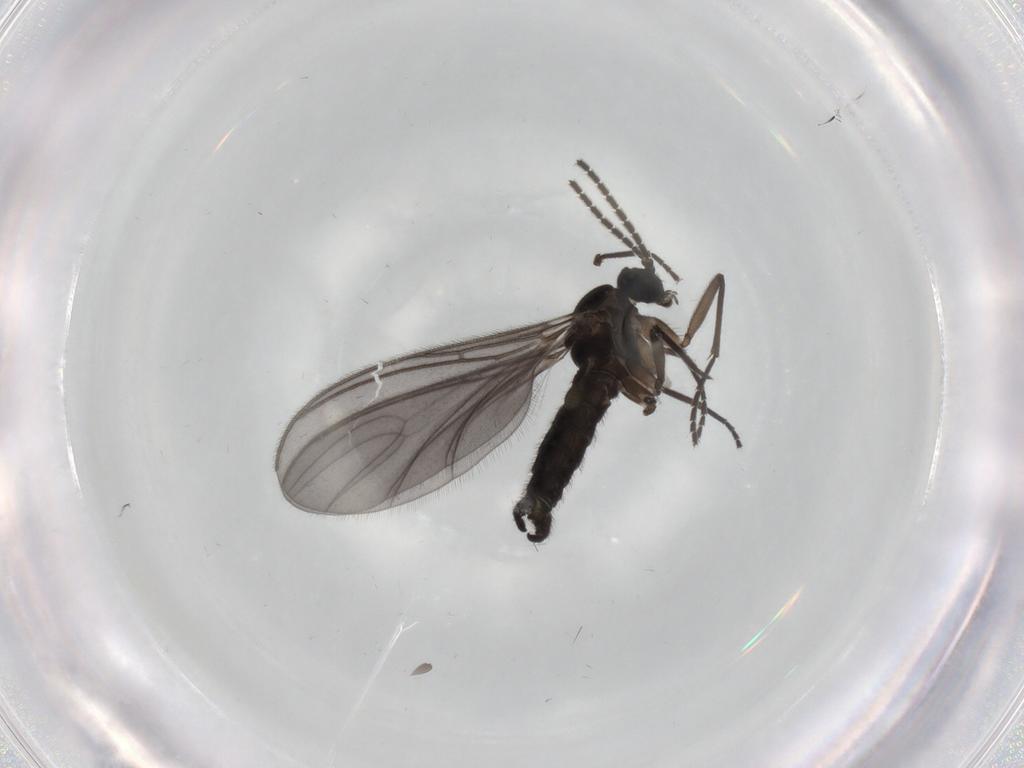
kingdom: Animalia
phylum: Arthropoda
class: Insecta
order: Diptera
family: Sciaridae
